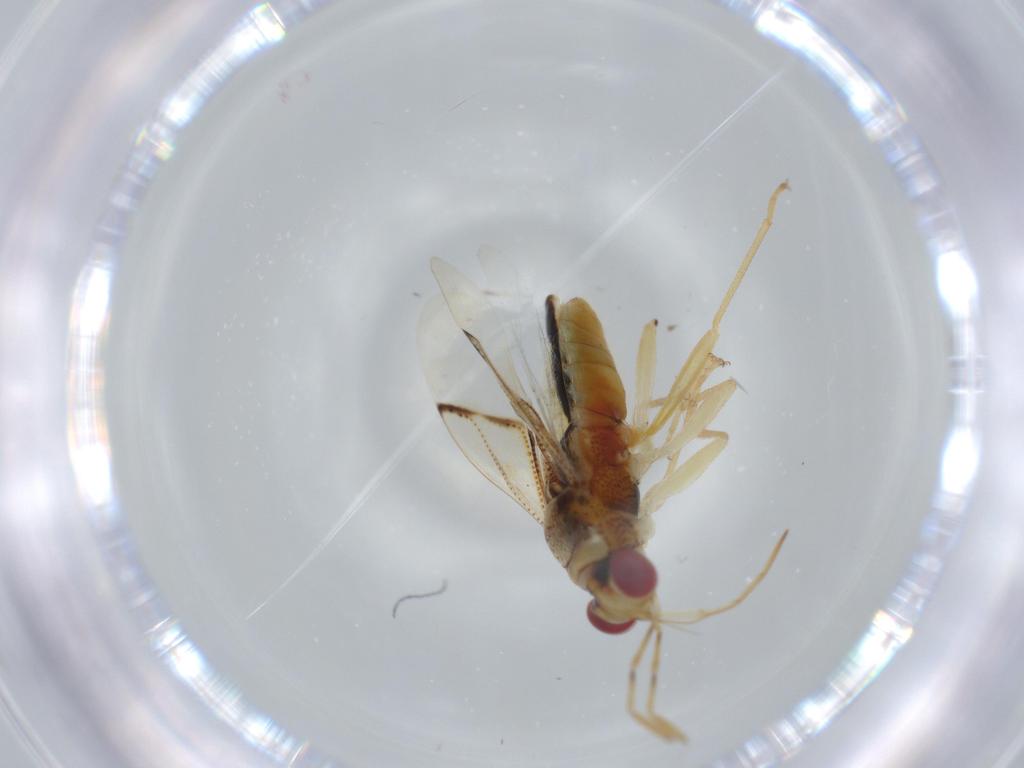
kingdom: Animalia
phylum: Arthropoda
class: Insecta
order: Hemiptera
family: Geocoridae
